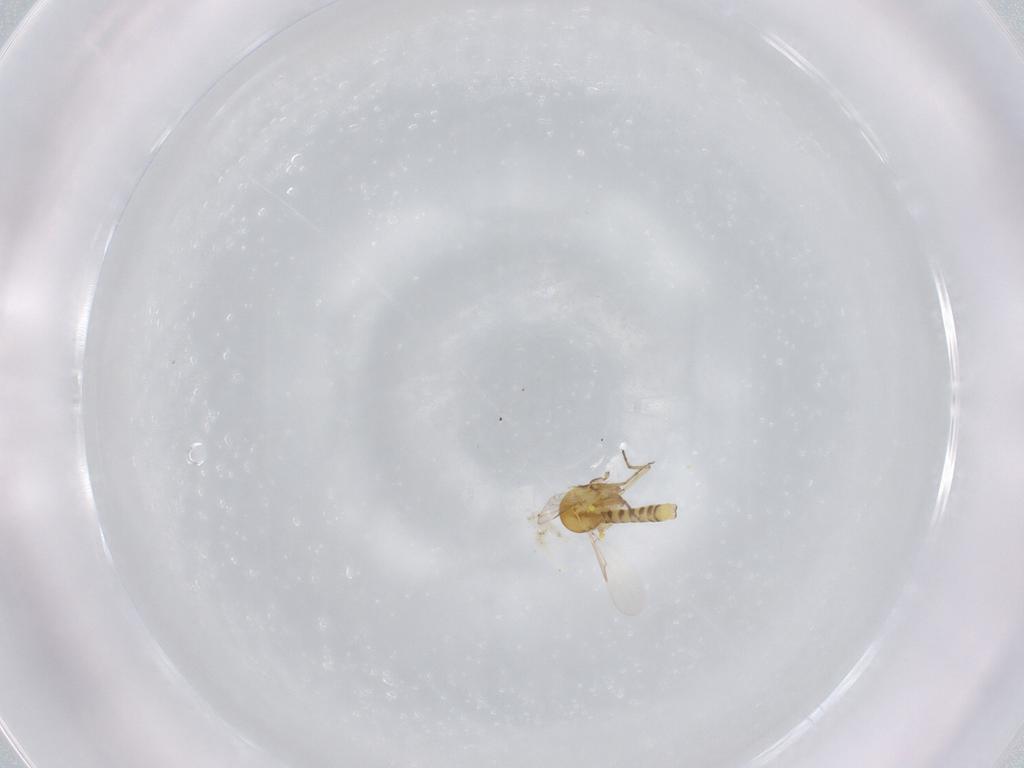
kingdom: Animalia
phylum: Arthropoda
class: Insecta
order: Diptera
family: Ceratopogonidae
